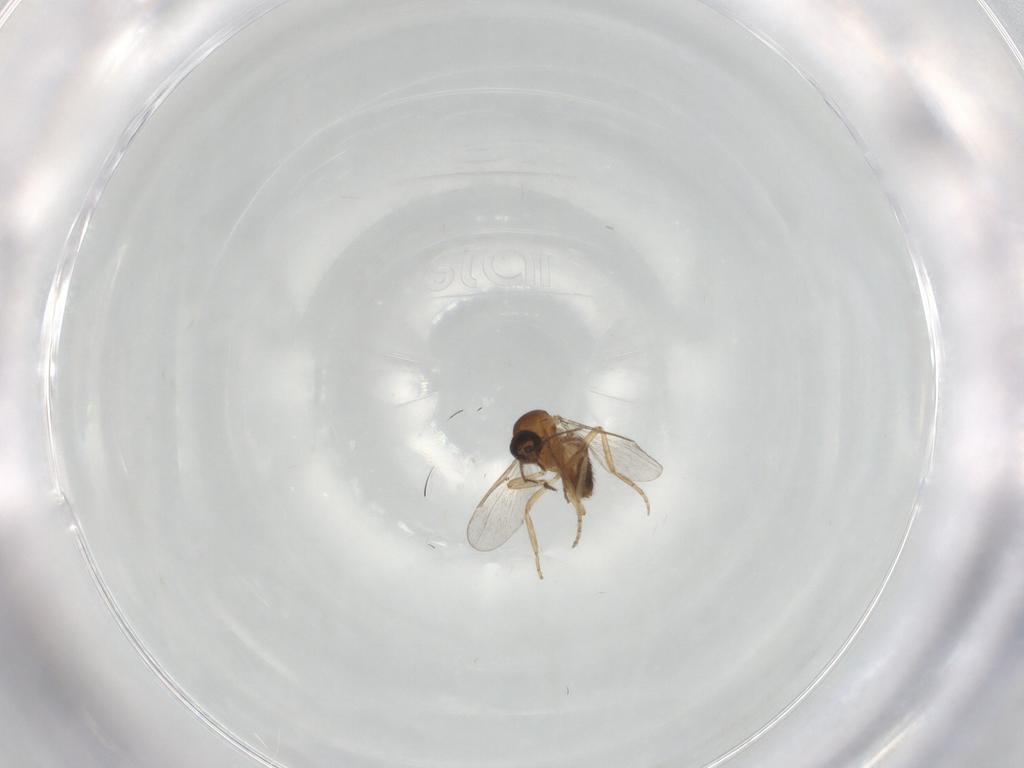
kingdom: Animalia
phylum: Arthropoda
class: Insecta
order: Diptera
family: Ceratopogonidae
